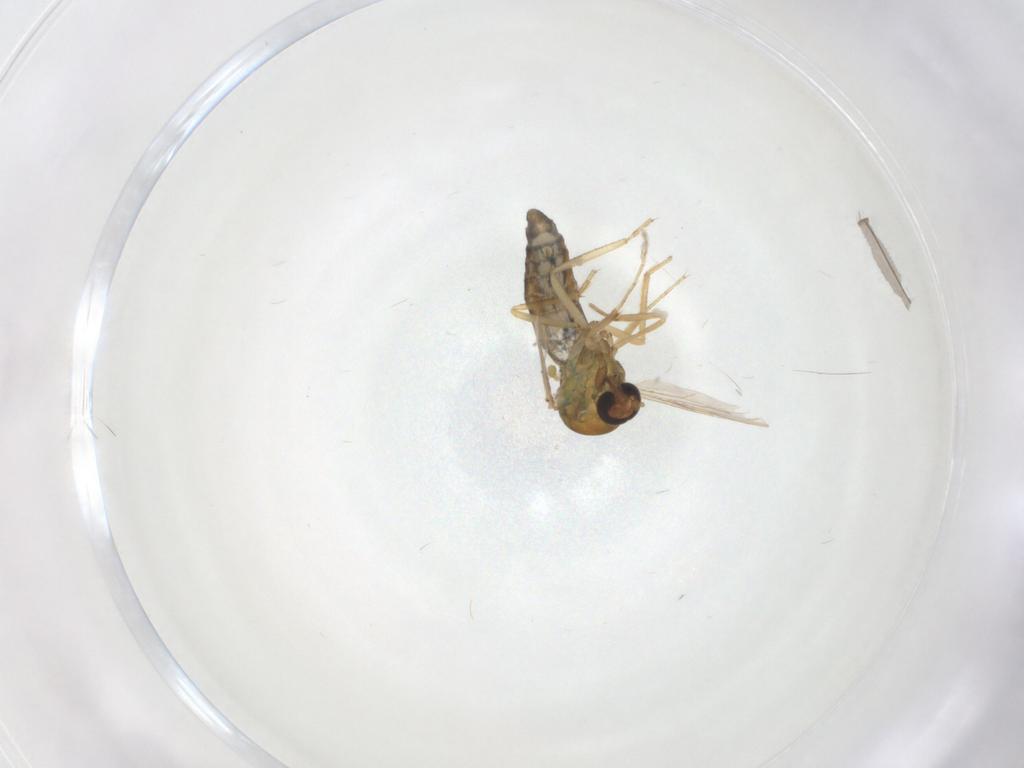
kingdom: Animalia
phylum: Arthropoda
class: Insecta
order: Diptera
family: Ceratopogonidae
